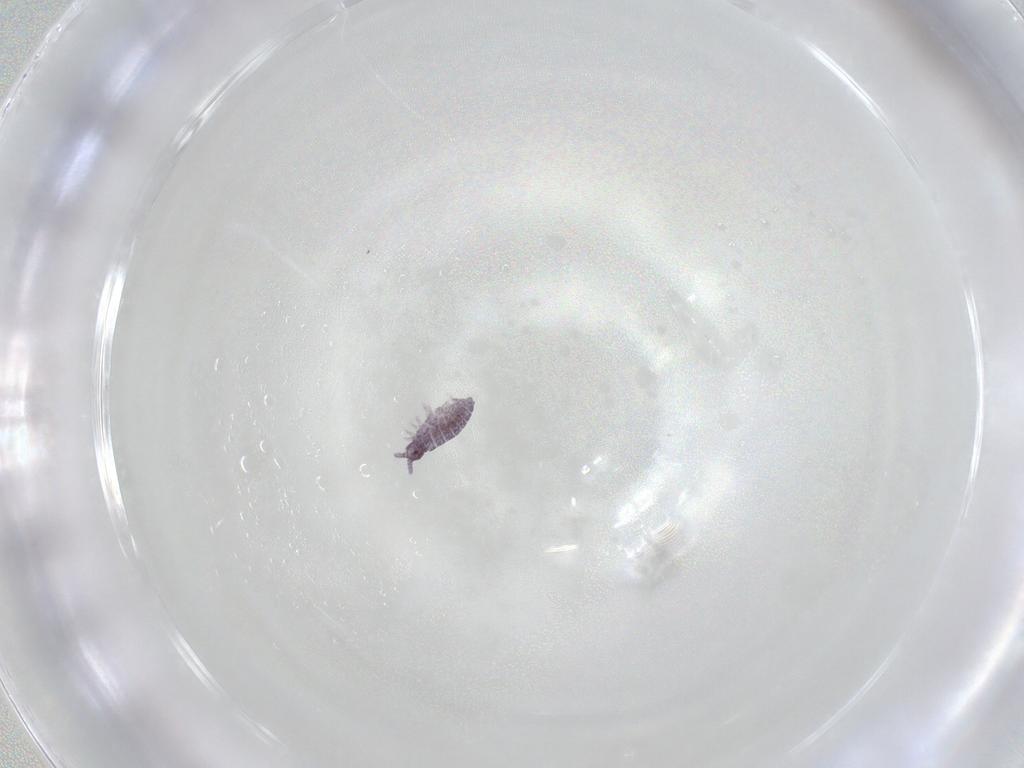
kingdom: Animalia
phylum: Arthropoda
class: Collembola
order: Poduromorpha
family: Brachystomellidae
